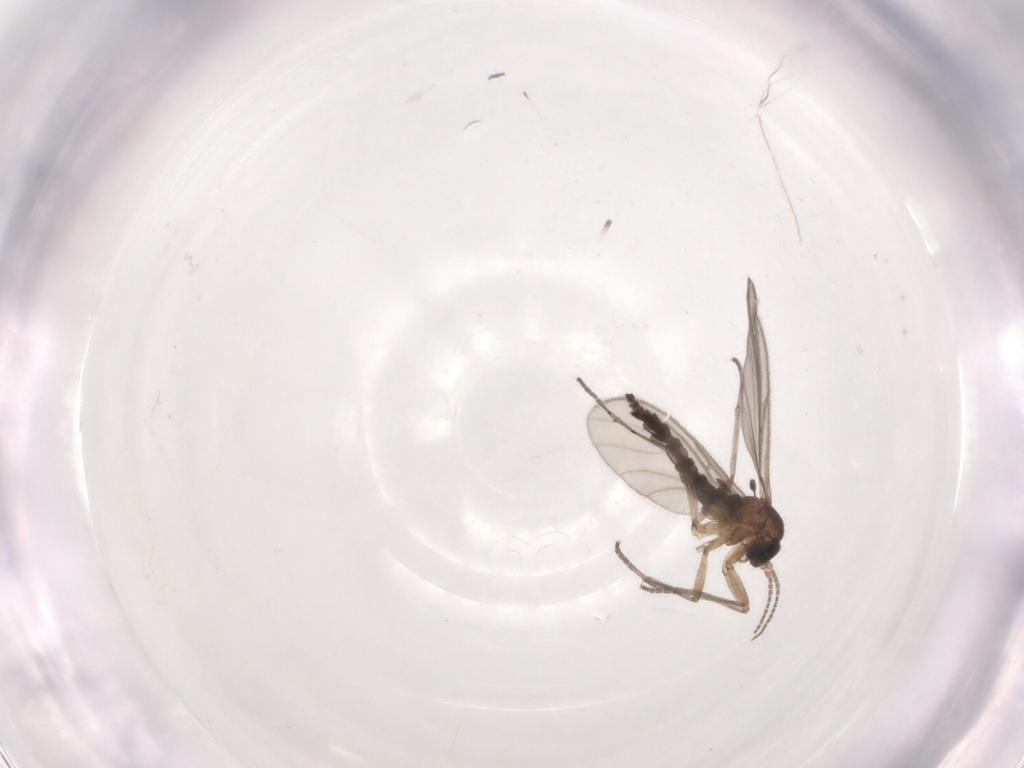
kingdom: Animalia
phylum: Arthropoda
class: Insecta
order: Diptera
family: Sciaridae
